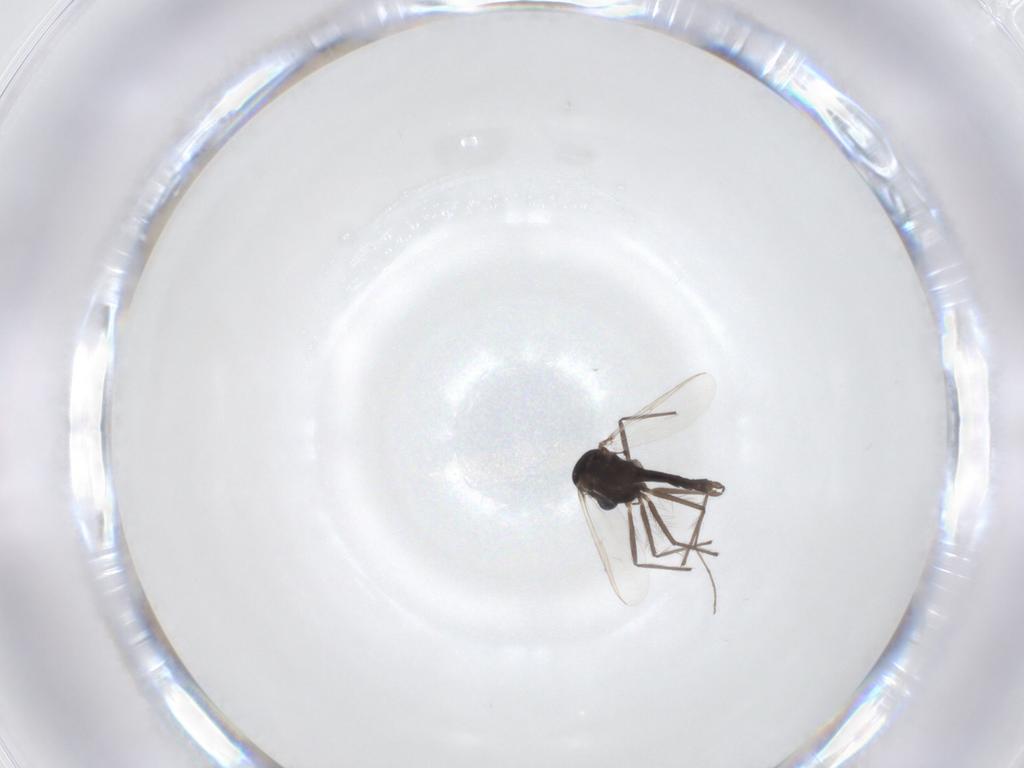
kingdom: Animalia
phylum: Arthropoda
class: Insecta
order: Diptera
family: Chironomidae
